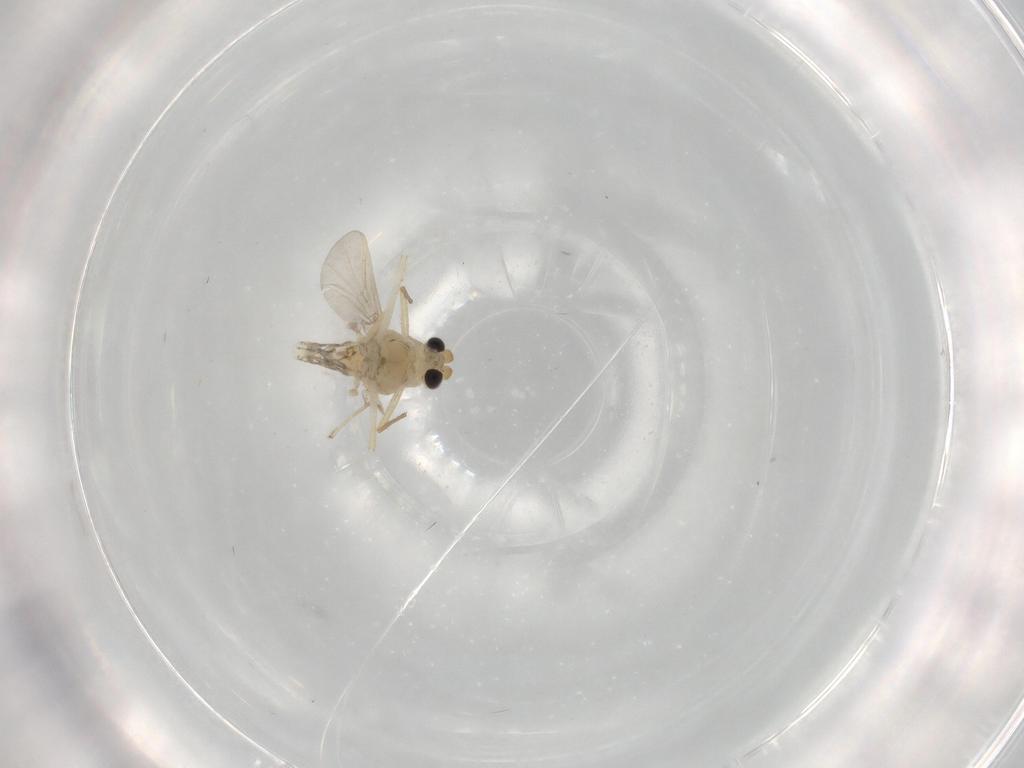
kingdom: Animalia
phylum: Arthropoda
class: Insecta
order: Diptera
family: Chironomidae
